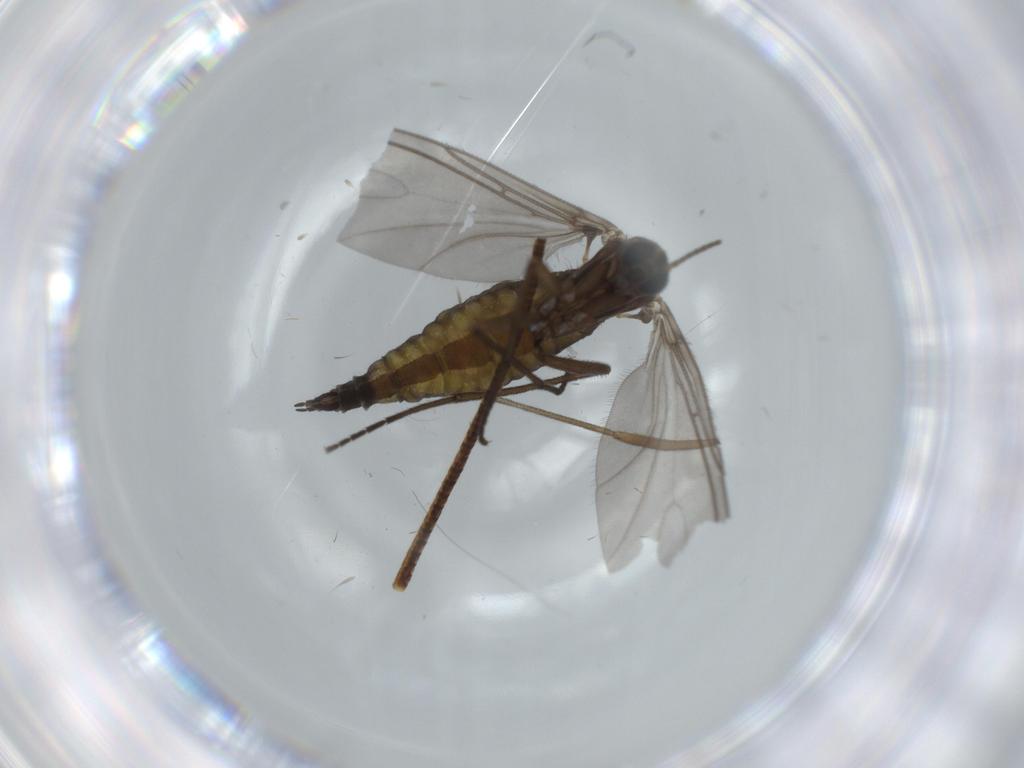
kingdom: Animalia
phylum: Arthropoda
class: Insecta
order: Diptera
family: Sciaridae
